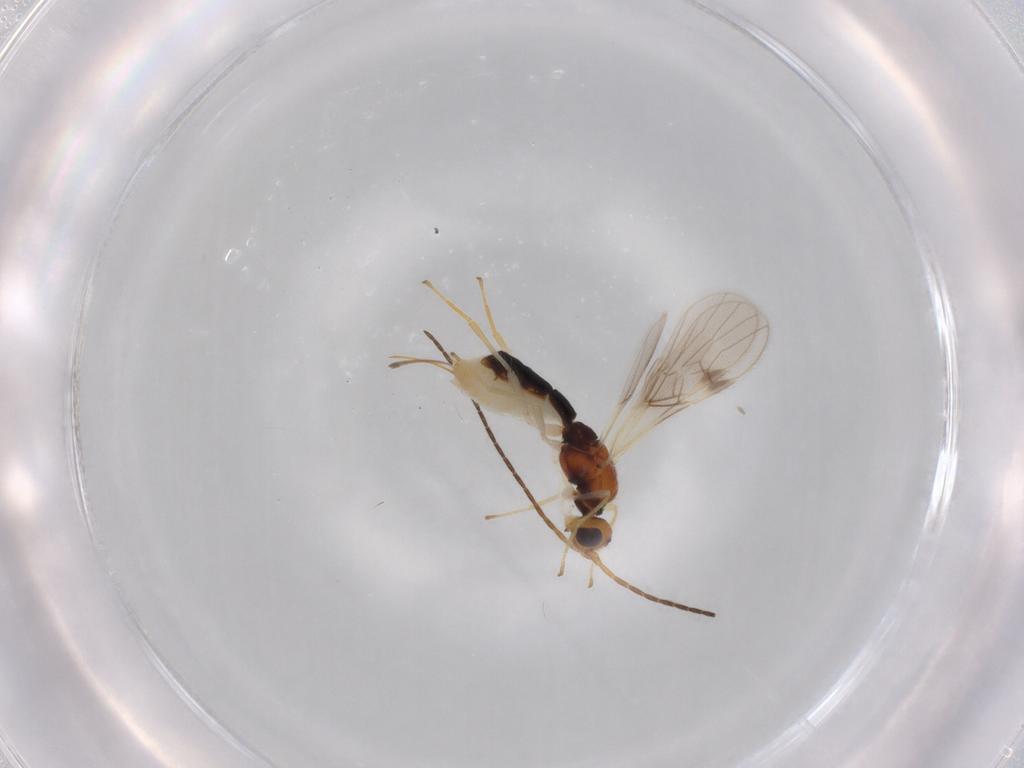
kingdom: Animalia
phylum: Arthropoda
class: Insecta
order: Hymenoptera
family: Braconidae
